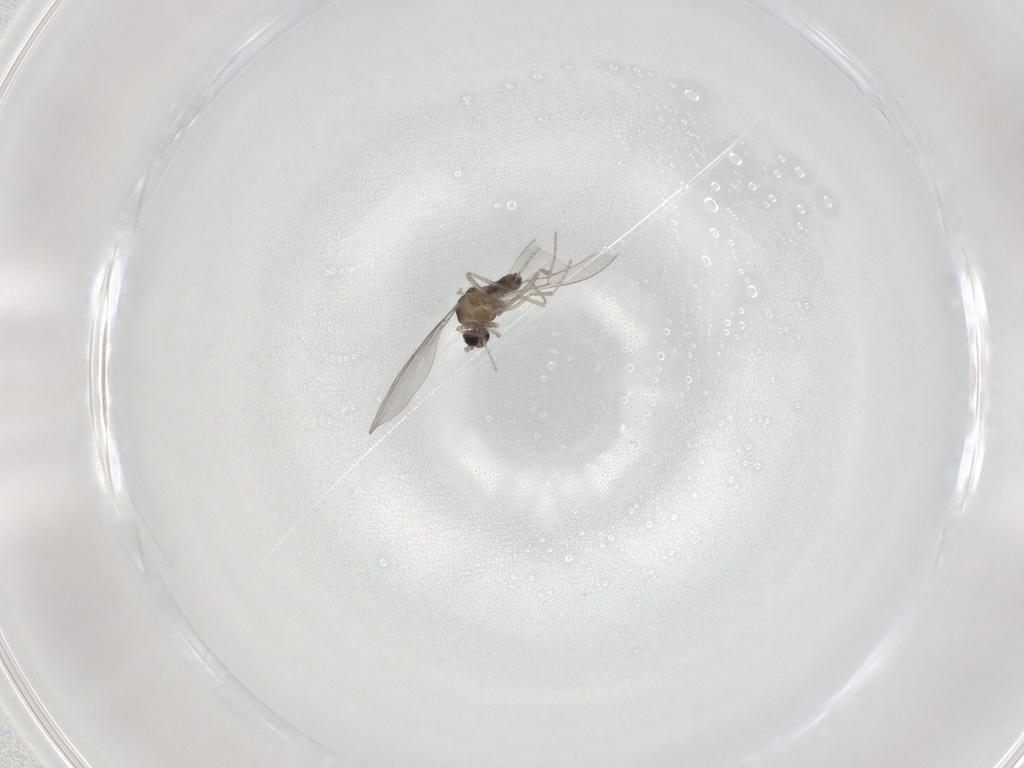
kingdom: Animalia
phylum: Arthropoda
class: Insecta
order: Diptera
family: Cecidomyiidae
